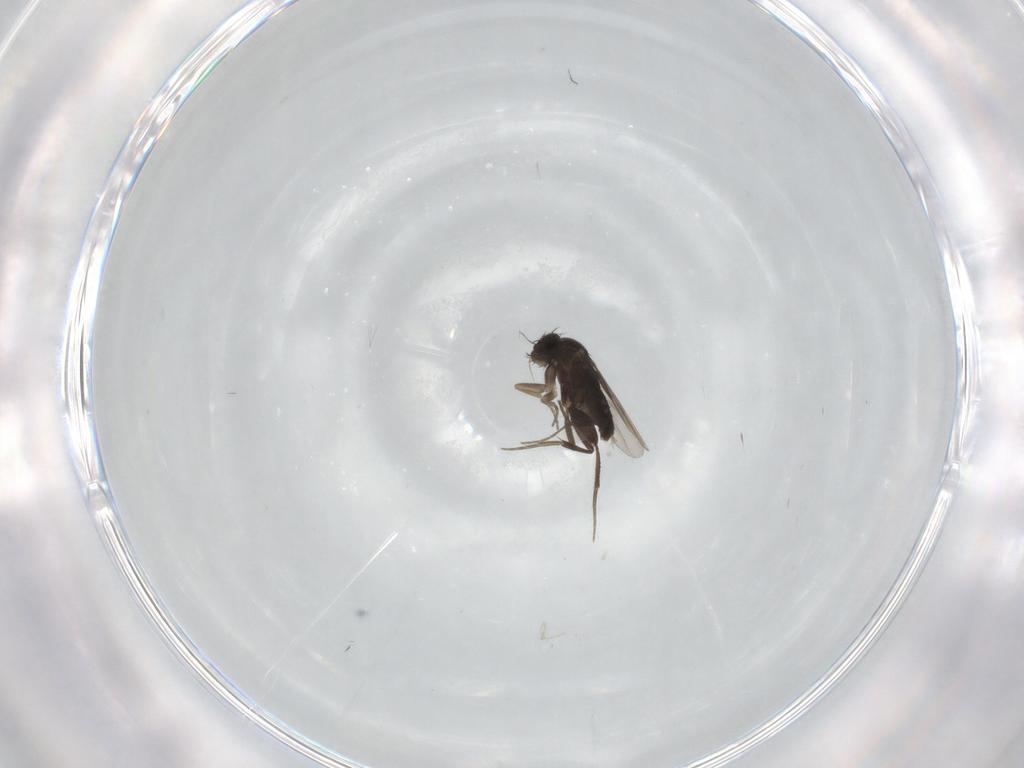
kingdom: Animalia
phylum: Arthropoda
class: Insecta
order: Diptera
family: Phoridae
